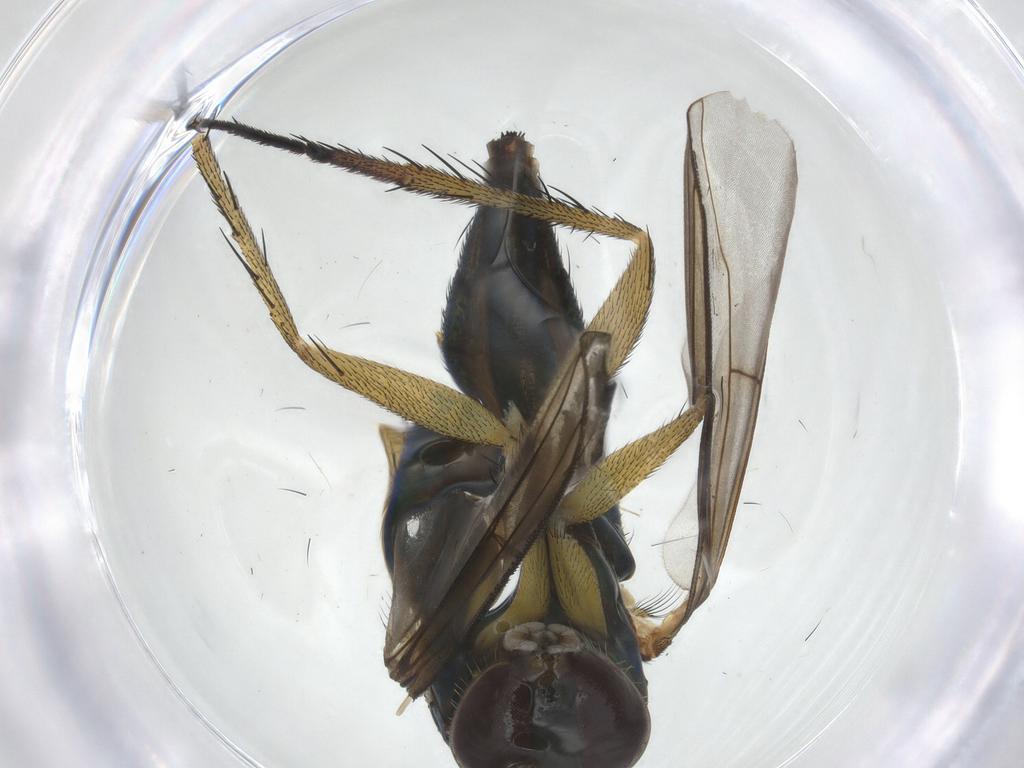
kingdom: Animalia
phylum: Arthropoda
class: Insecta
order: Diptera
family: Dolichopodidae
